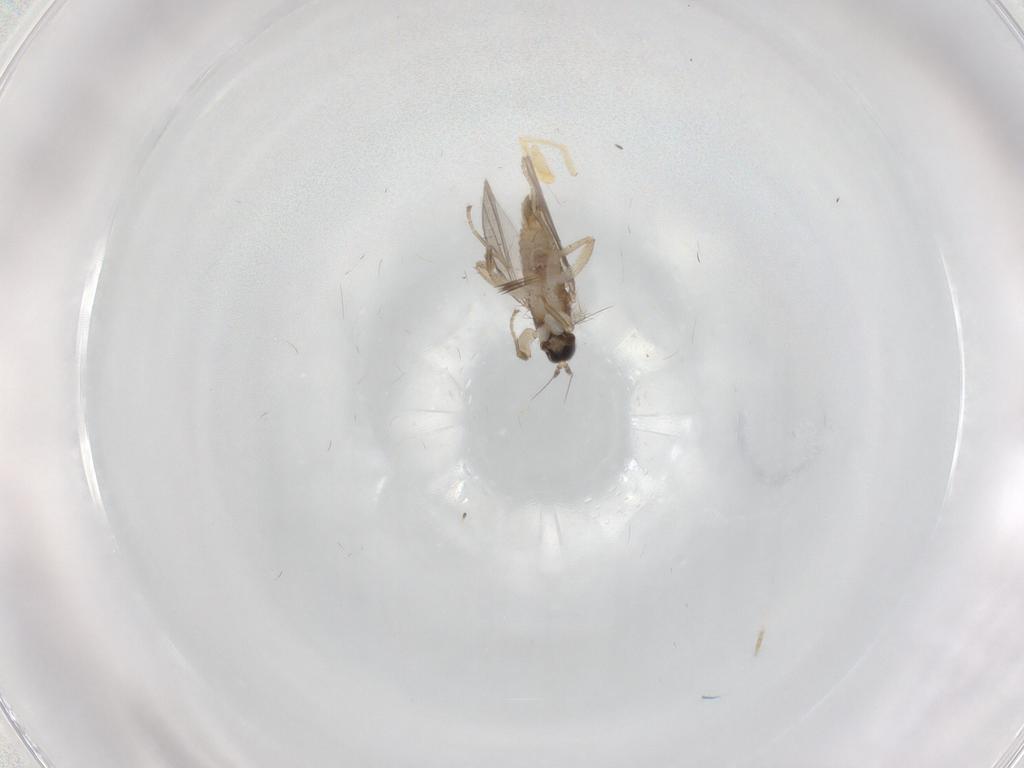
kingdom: Animalia
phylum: Arthropoda
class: Insecta
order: Diptera
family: Hybotidae
